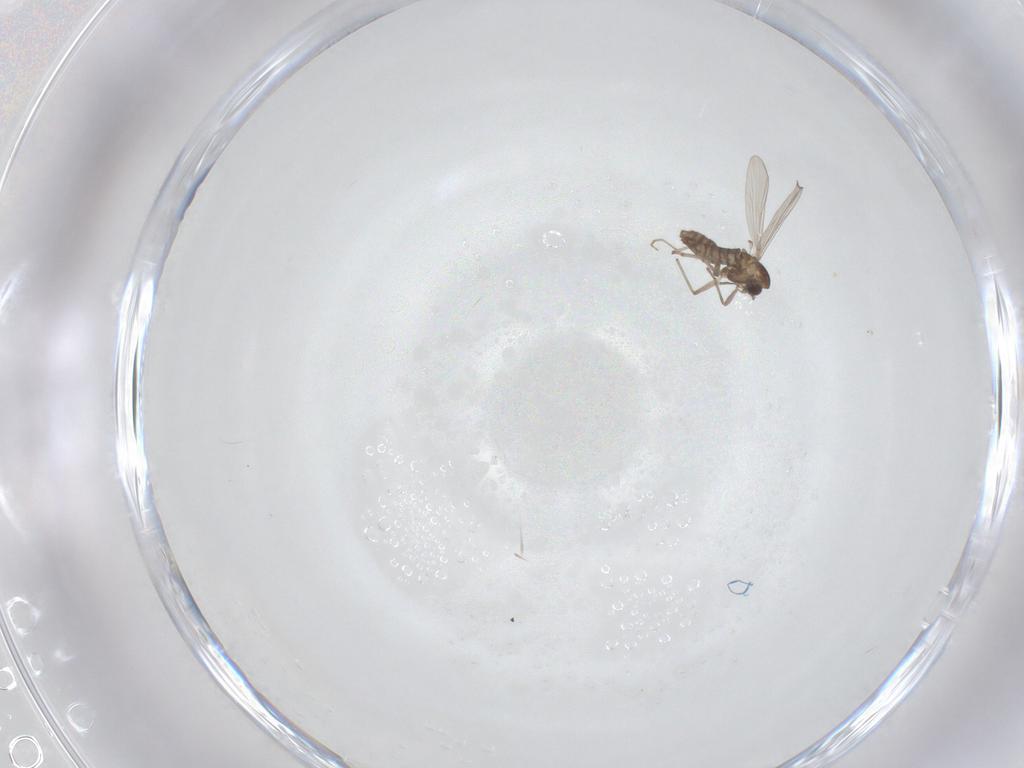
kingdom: Animalia
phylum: Arthropoda
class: Insecta
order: Diptera
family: Chironomidae
